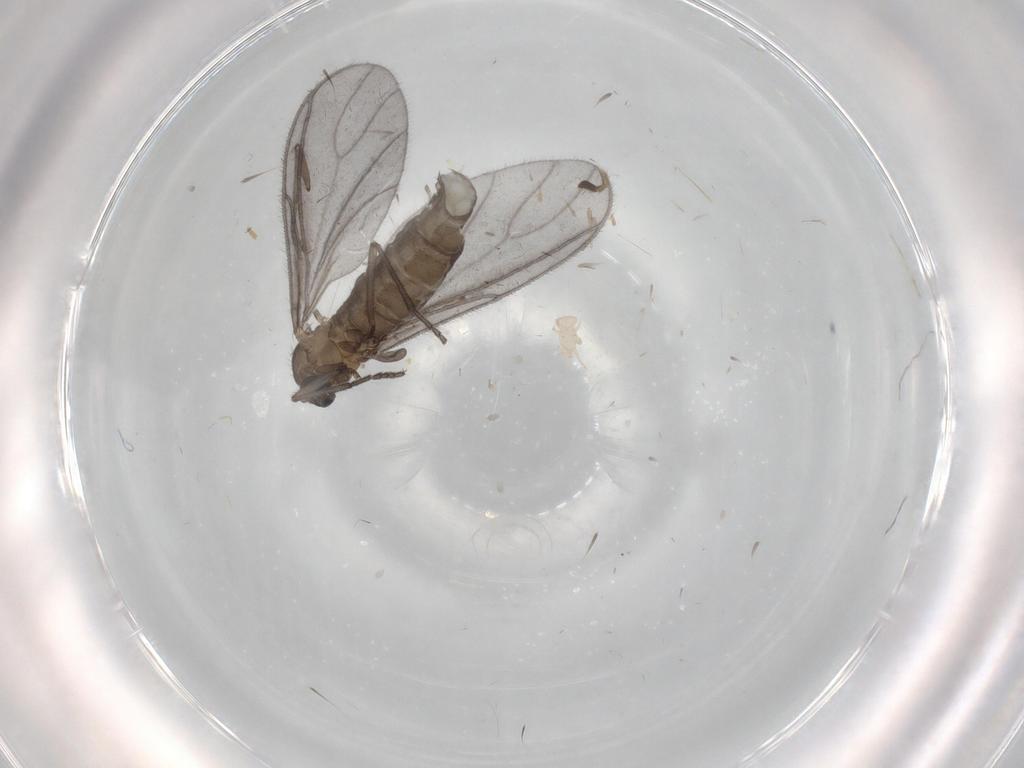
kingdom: Animalia
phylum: Arthropoda
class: Insecta
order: Diptera
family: Sciaridae
